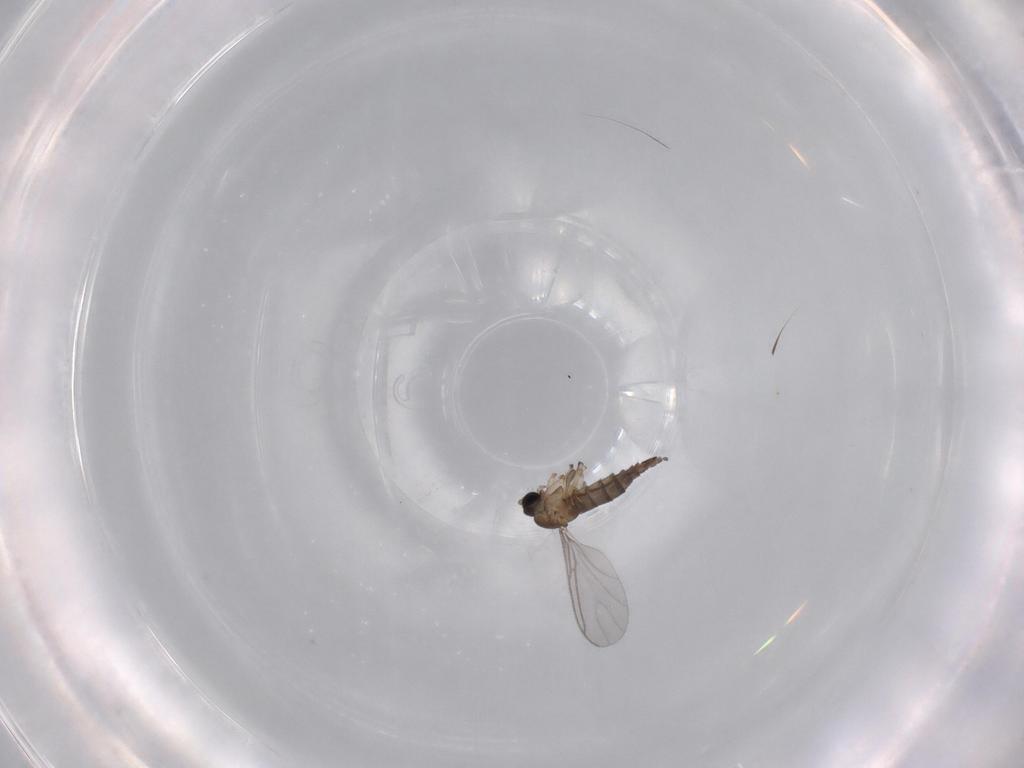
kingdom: Animalia
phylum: Arthropoda
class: Insecta
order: Diptera
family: Sciaridae
